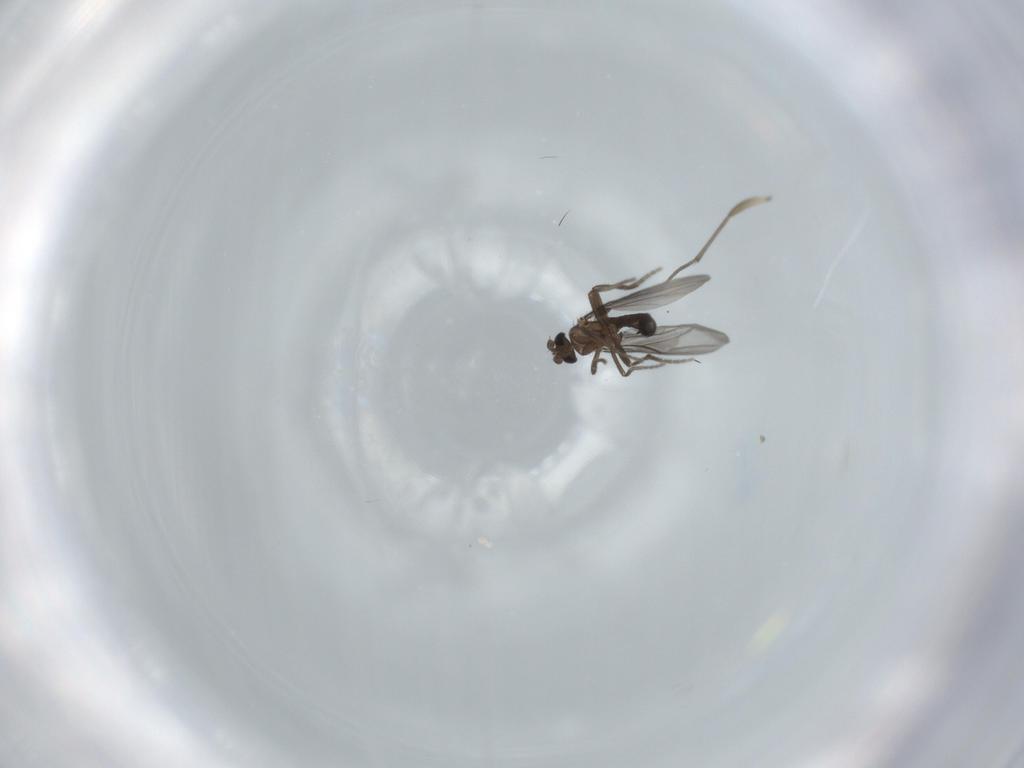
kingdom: Animalia
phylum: Arthropoda
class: Insecta
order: Diptera
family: Phoridae
